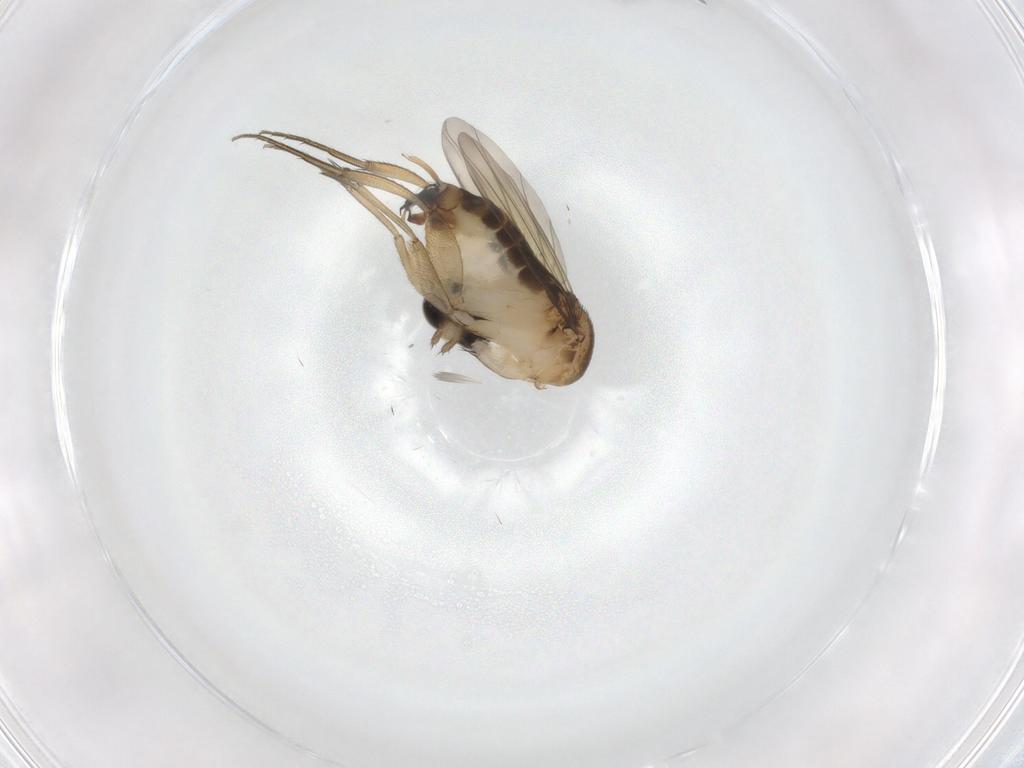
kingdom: Animalia
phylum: Arthropoda
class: Insecta
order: Diptera
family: Phoridae
